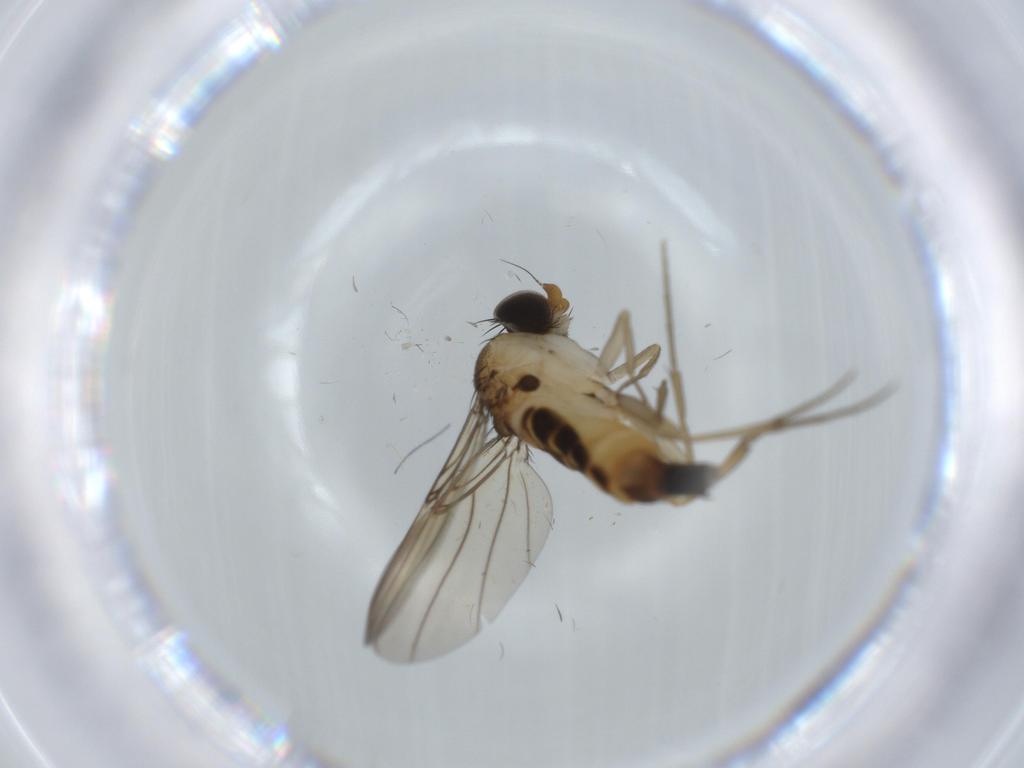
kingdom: Animalia
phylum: Arthropoda
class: Insecta
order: Diptera
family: Phoridae
